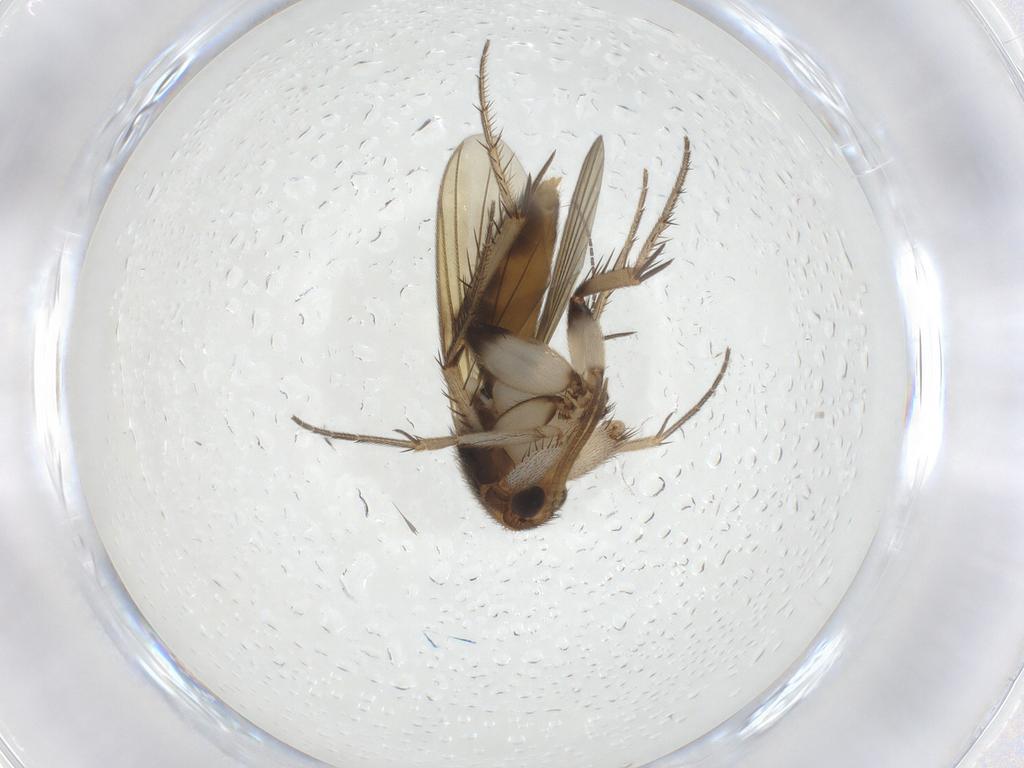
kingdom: Animalia
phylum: Arthropoda
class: Insecta
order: Diptera
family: Mycetophilidae
